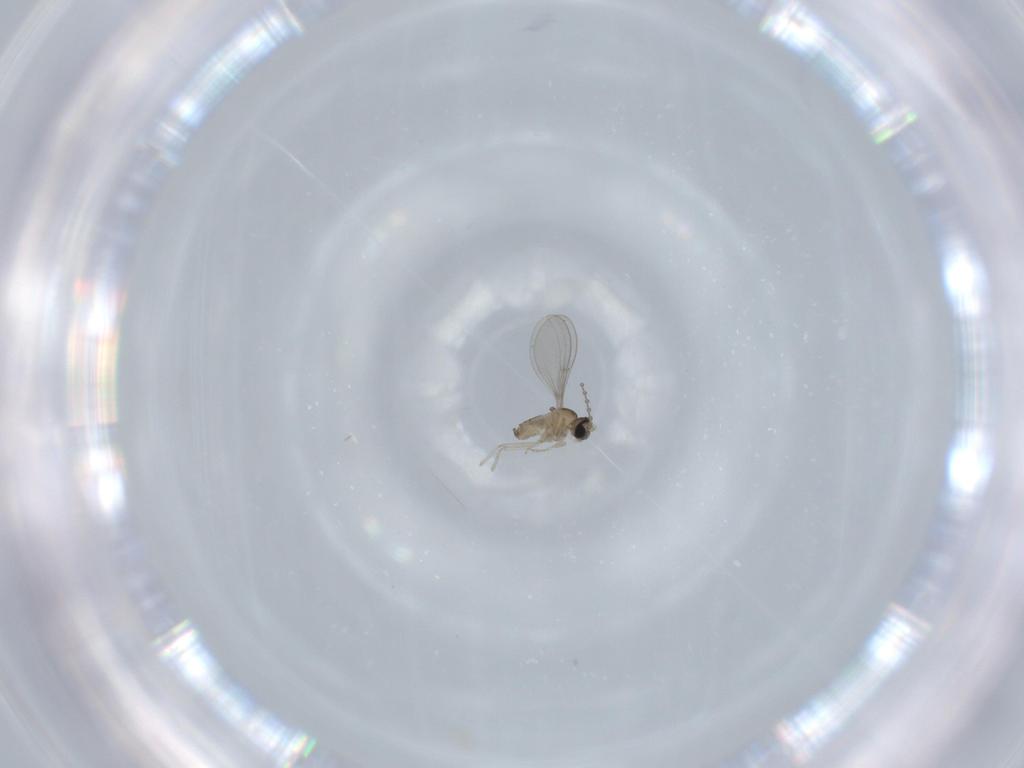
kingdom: Animalia
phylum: Arthropoda
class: Insecta
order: Diptera
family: Cecidomyiidae
